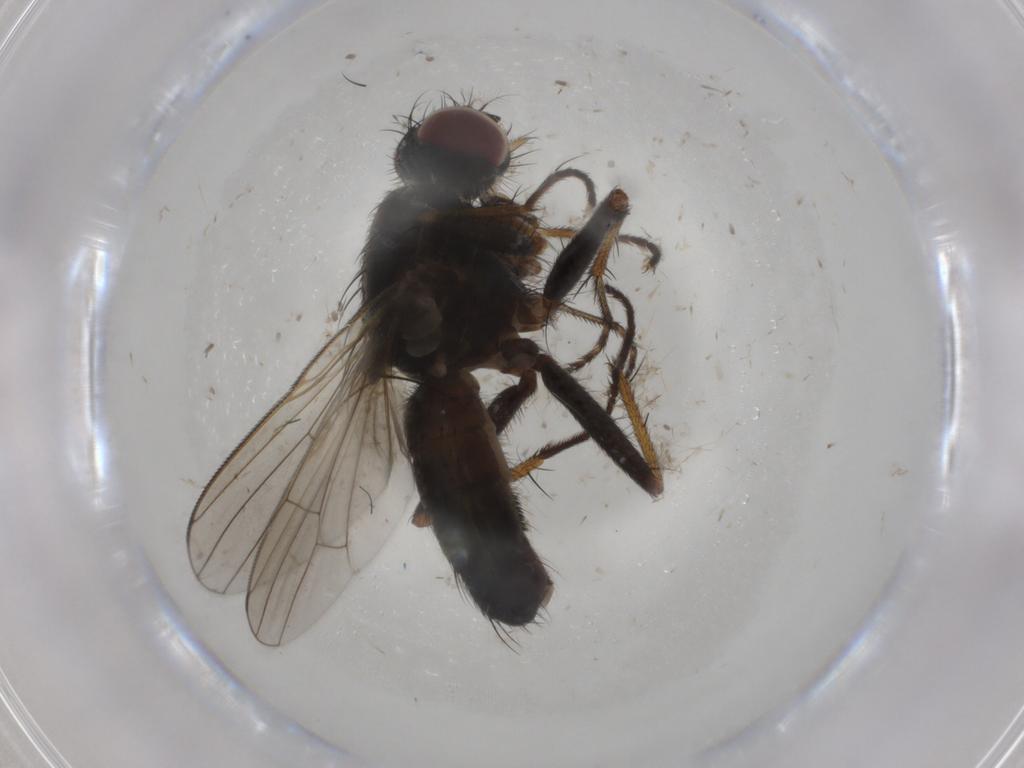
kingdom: Animalia
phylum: Arthropoda
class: Insecta
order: Diptera
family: Muscidae
